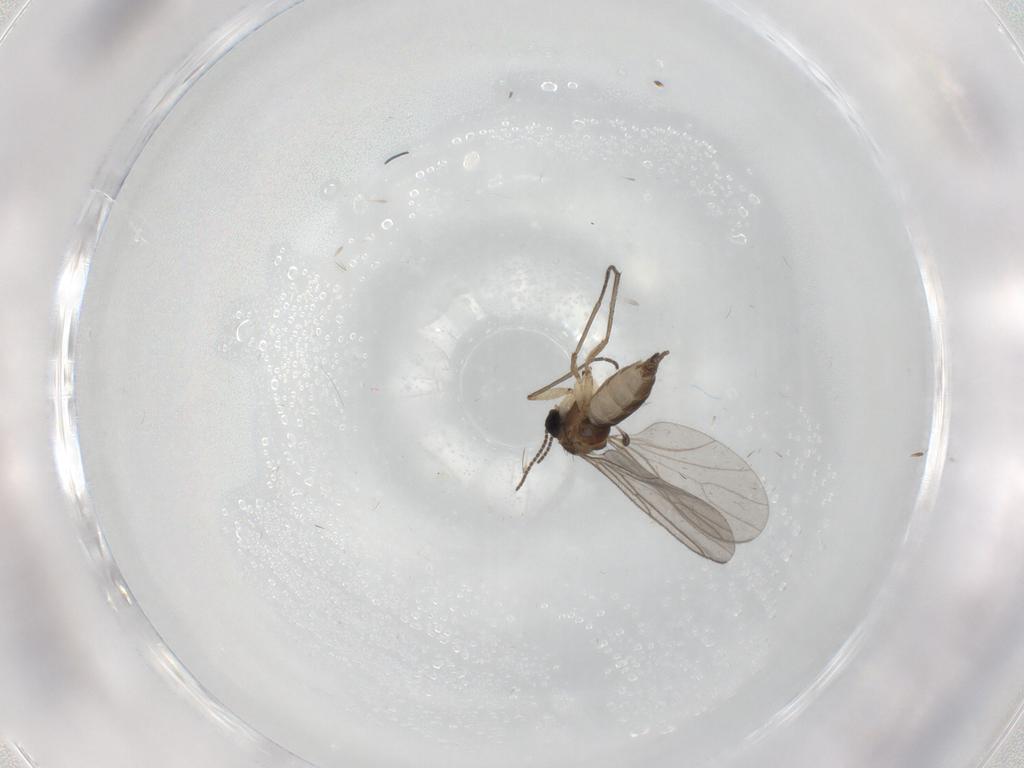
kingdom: Animalia
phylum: Arthropoda
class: Insecta
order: Diptera
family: Sciaridae
